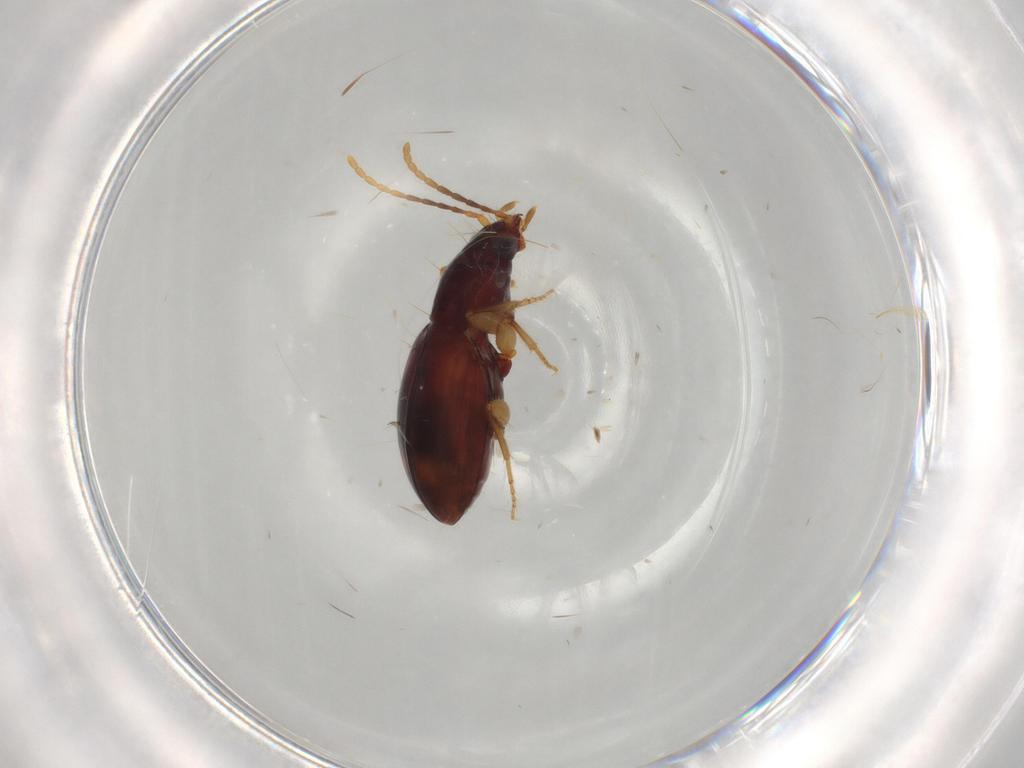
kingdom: Animalia
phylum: Arthropoda
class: Insecta
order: Coleoptera
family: Carabidae
